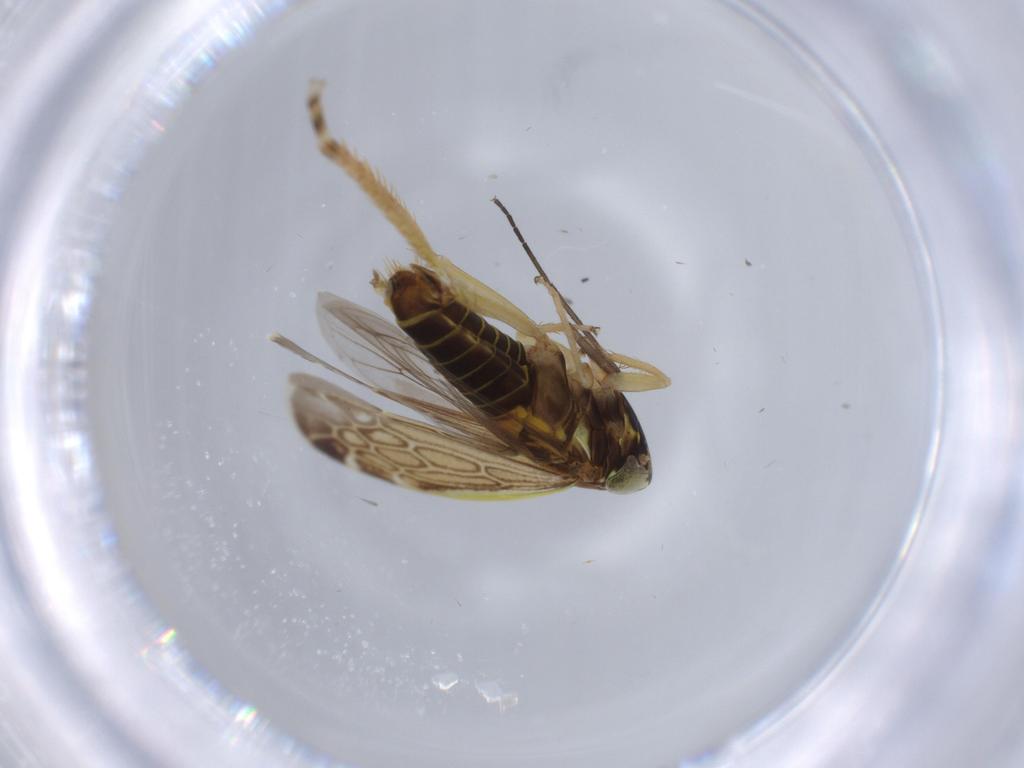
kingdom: Animalia
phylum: Arthropoda
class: Insecta
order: Hemiptera
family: Cicadellidae
